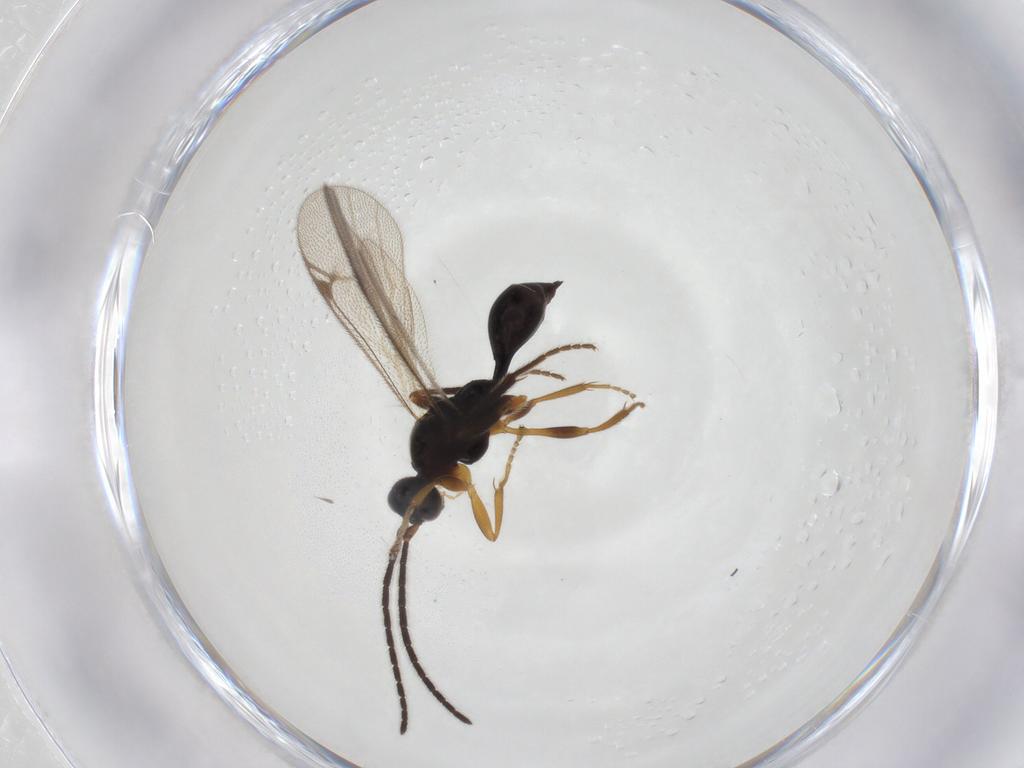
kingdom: Animalia
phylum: Arthropoda
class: Insecta
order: Hymenoptera
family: Proctotrupidae
